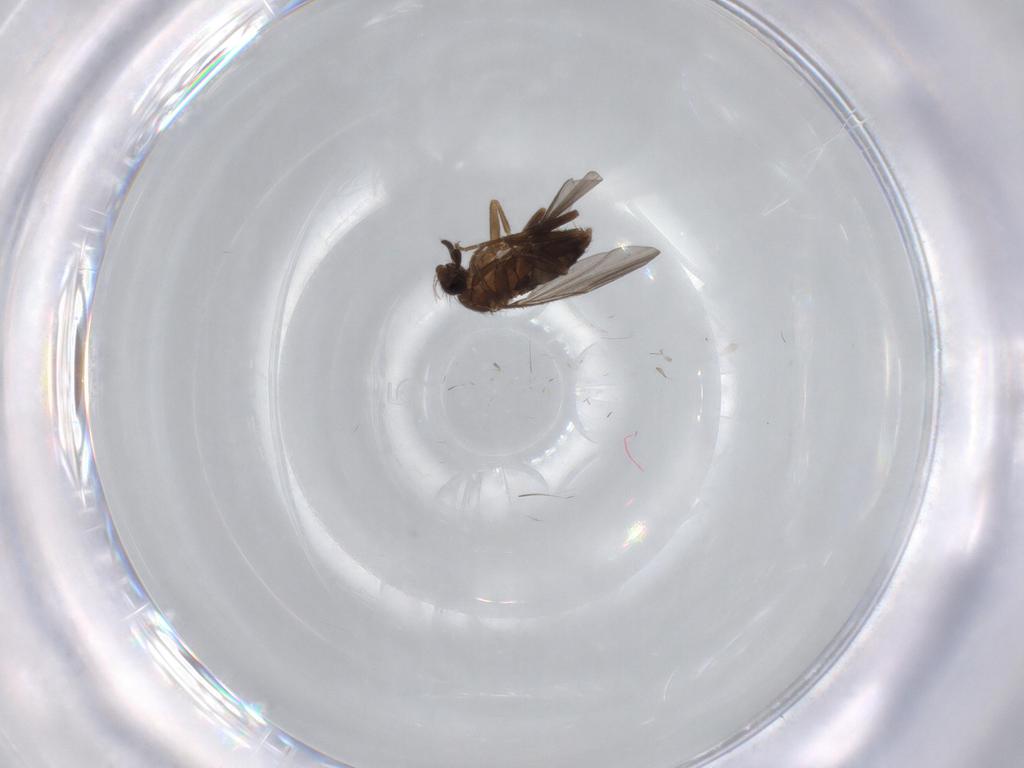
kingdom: Animalia
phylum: Arthropoda
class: Insecta
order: Diptera
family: Phoridae
